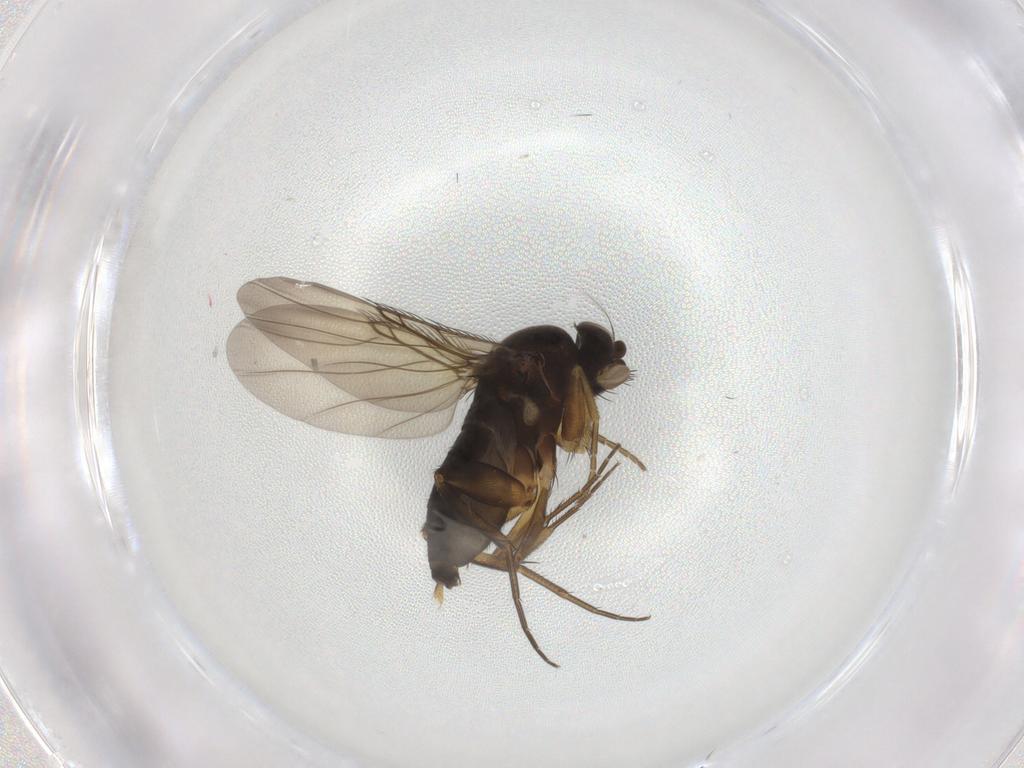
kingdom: Animalia
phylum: Arthropoda
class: Insecta
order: Diptera
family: Phoridae
